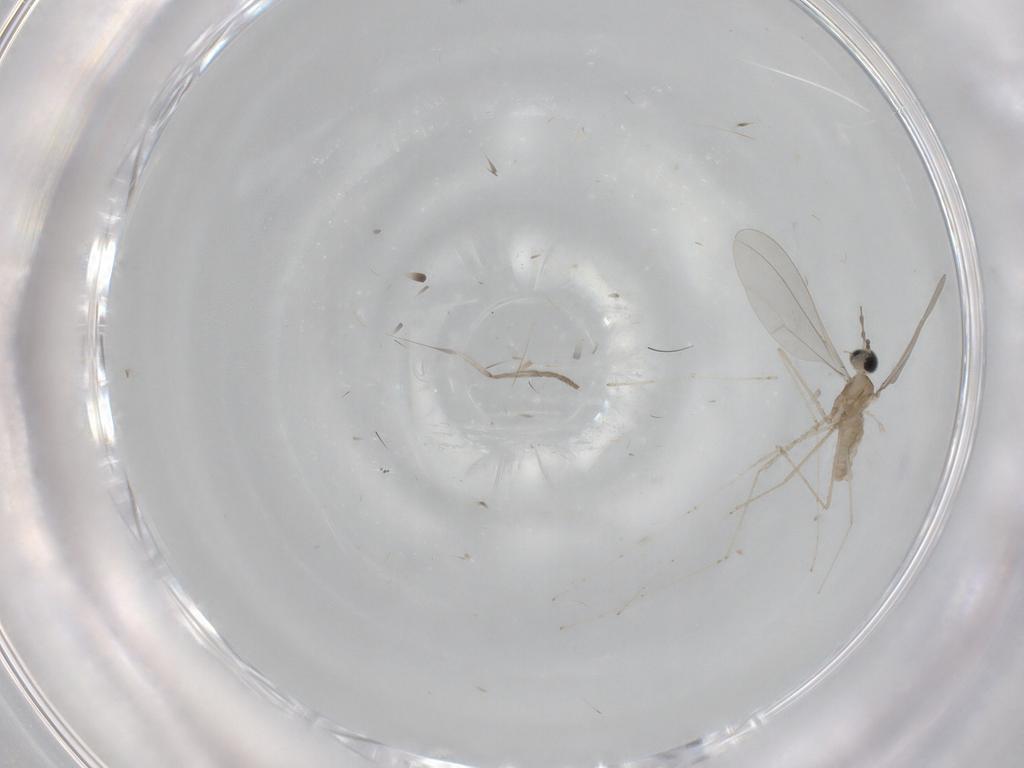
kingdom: Animalia
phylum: Arthropoda
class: Insecta
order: Diptera
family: Cecidomyiidae
